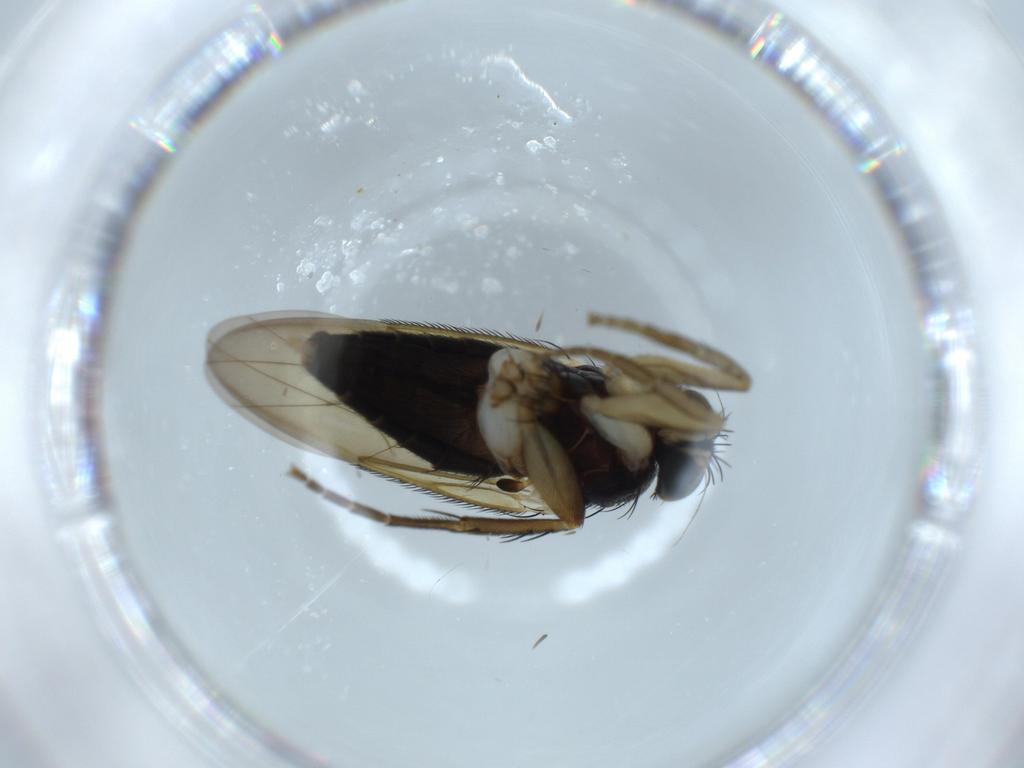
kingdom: Animalia
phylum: Arthropoda
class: Insecta
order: Diptera
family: Phoridae
